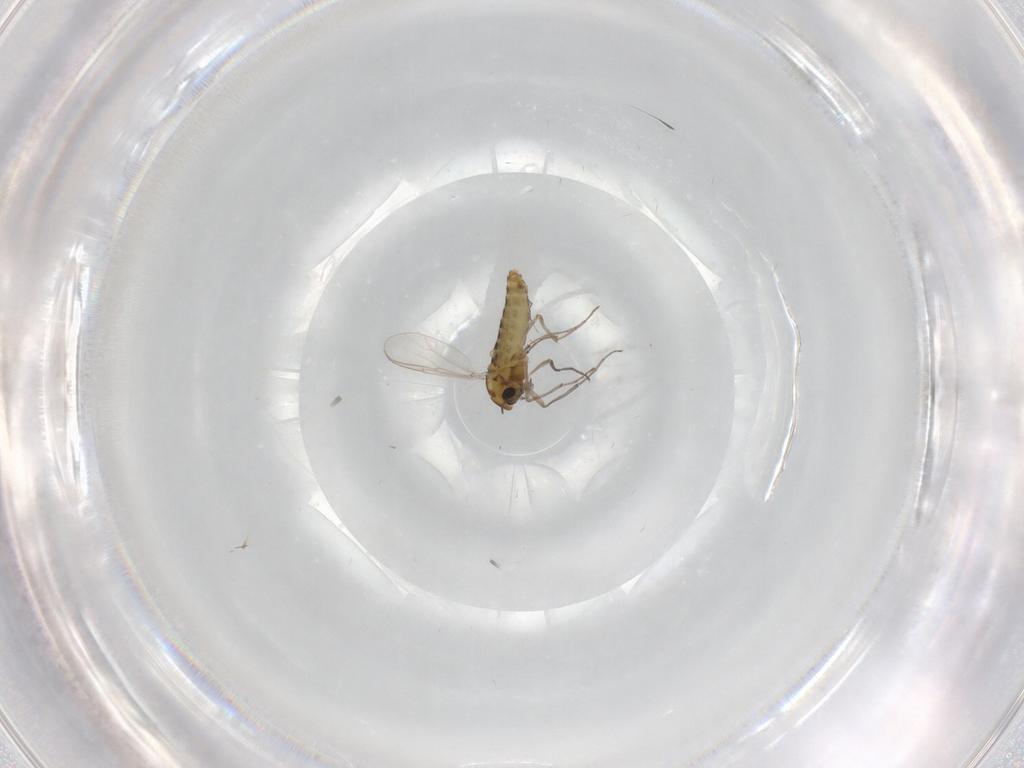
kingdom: Animalia
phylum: Arthropoda
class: Insecta
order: Diptera
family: Chironomidae
